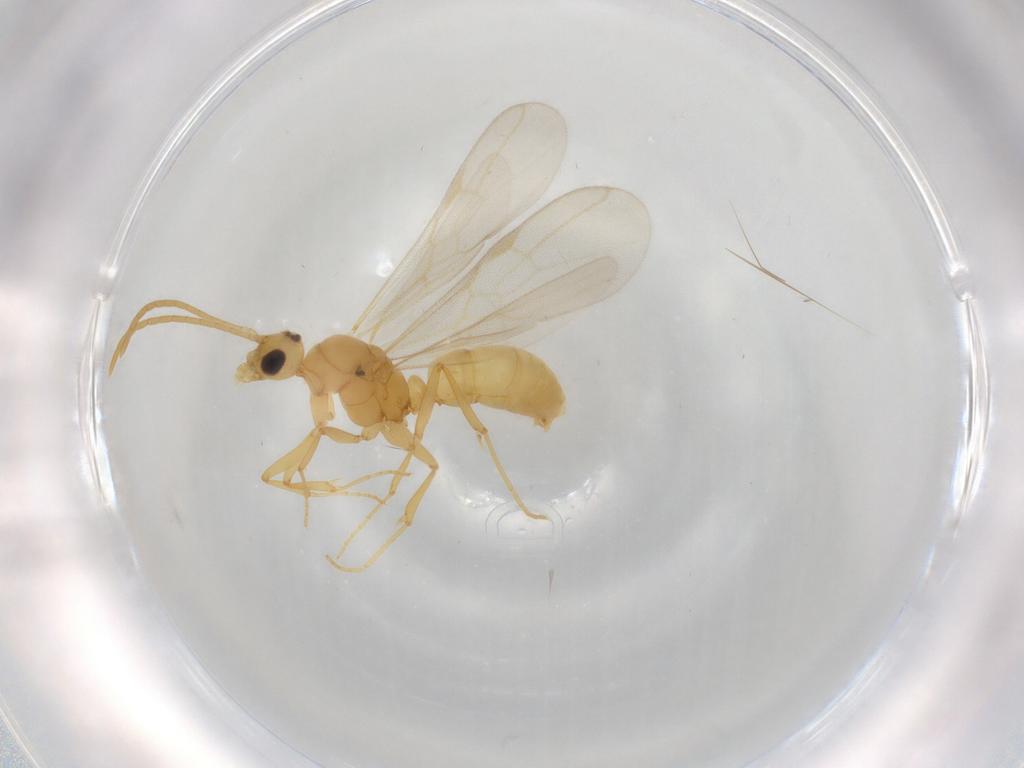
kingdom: Animalia
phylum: Arthropoda
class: Insecta
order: Hymenoptera
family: Formicidae
